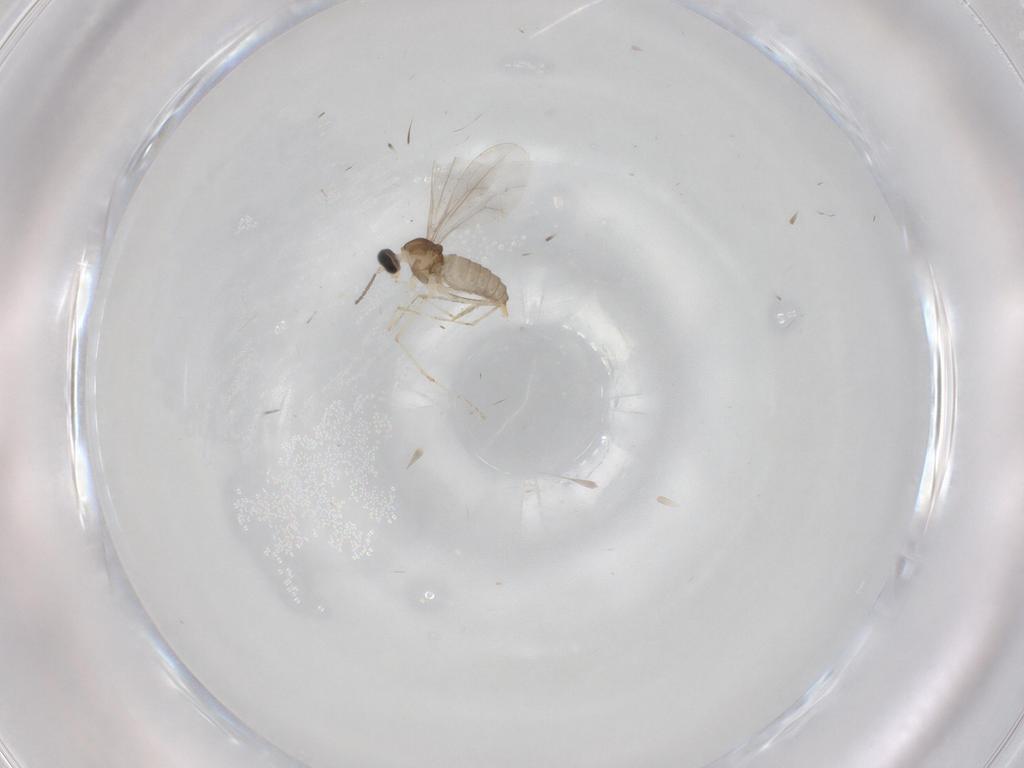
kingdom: Animalia
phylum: Arthropoda
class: Insecta
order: Diptera
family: Cecidomyiidae
